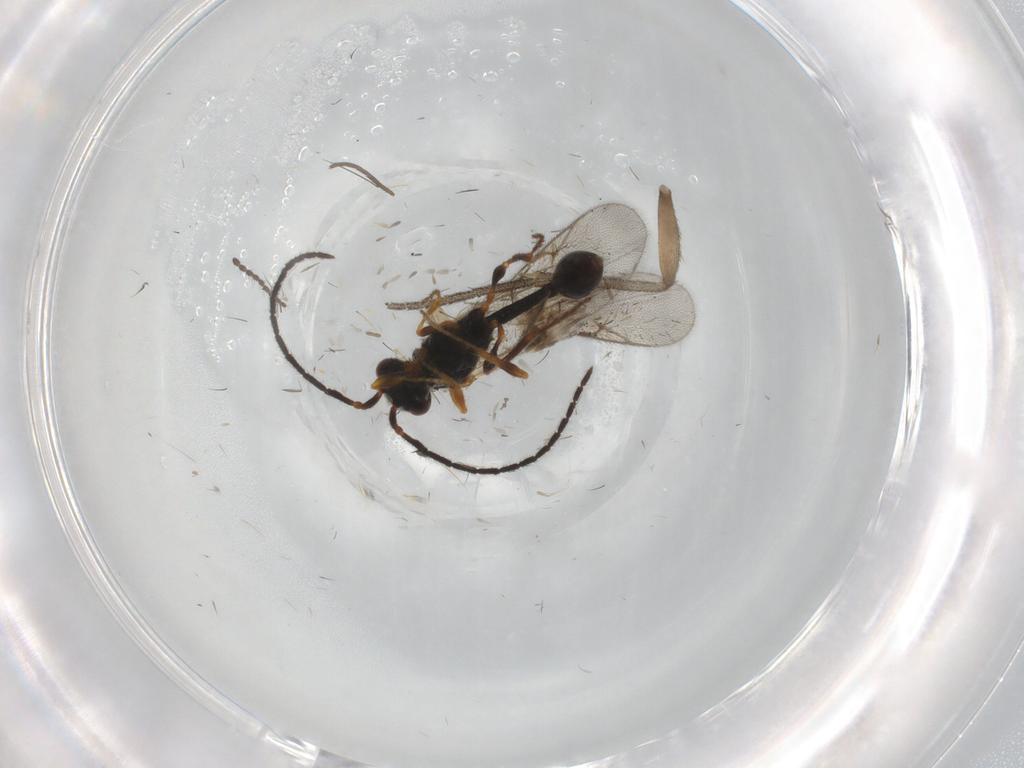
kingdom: Animalia
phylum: Arthropoda
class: Insecta
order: Hymenoptera
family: Diapriidae
